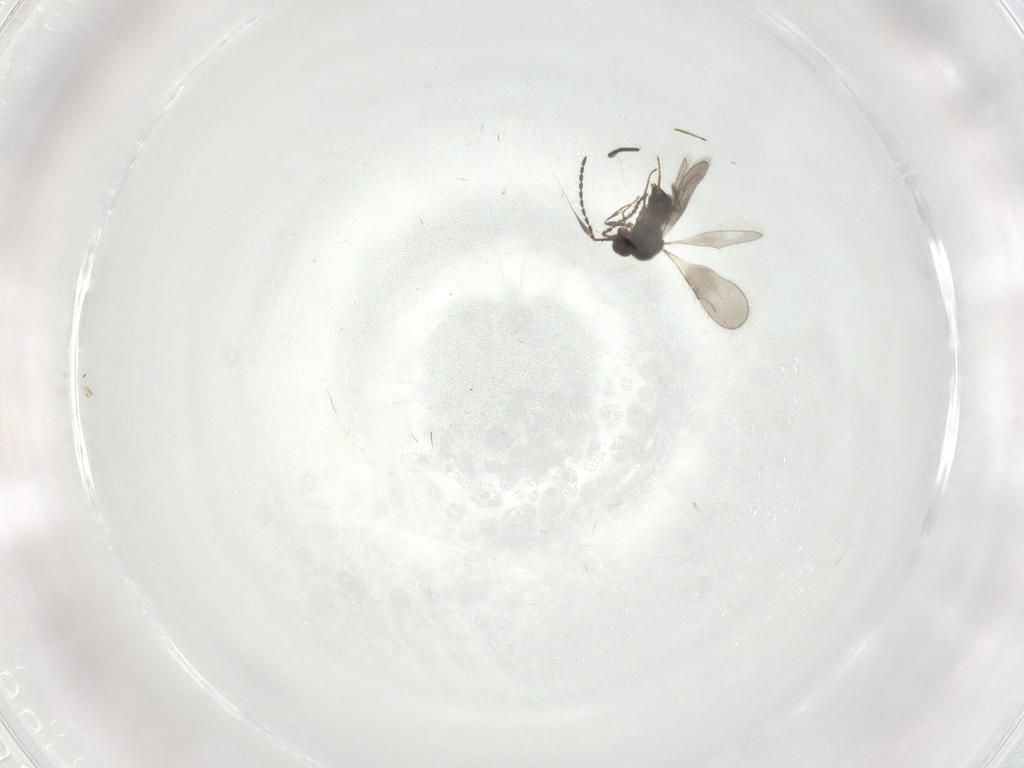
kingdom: Animalia
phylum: Arthropoda
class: Insecta
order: Hymenoptera
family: Ceraphronidae
